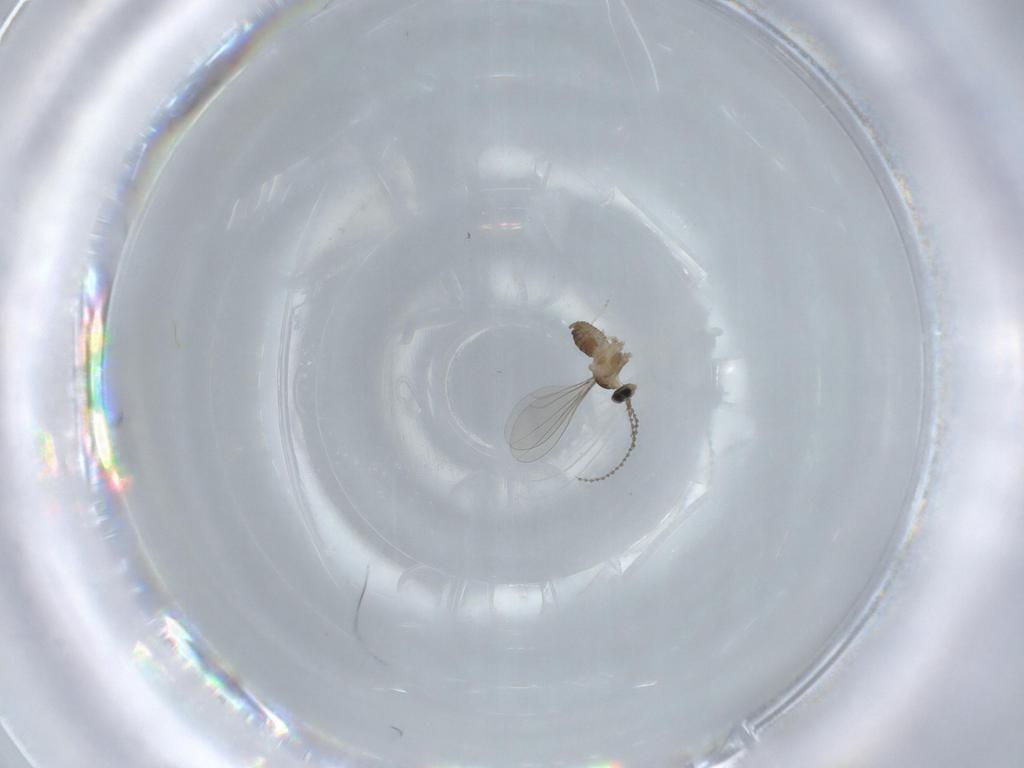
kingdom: Animalia
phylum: Arthropoda
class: Insecta
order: Diptera
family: Cecidomyiidae
